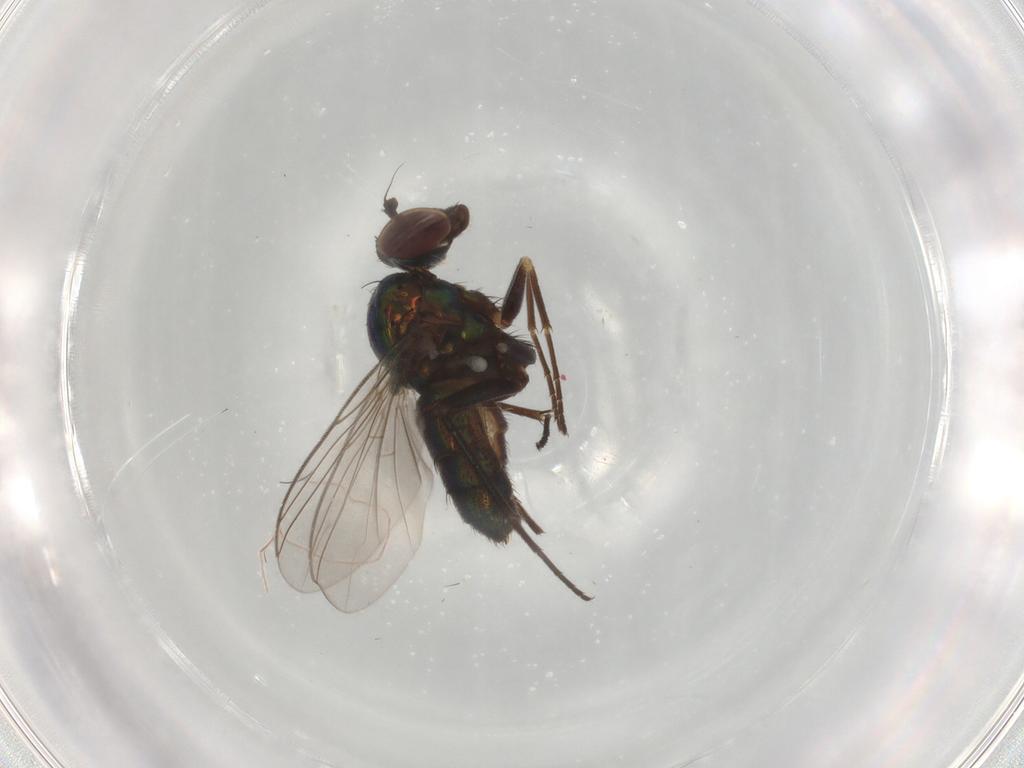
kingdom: Animalia
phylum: Arthropoda
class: Insecta
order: Diptera
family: Dolichopodidae
